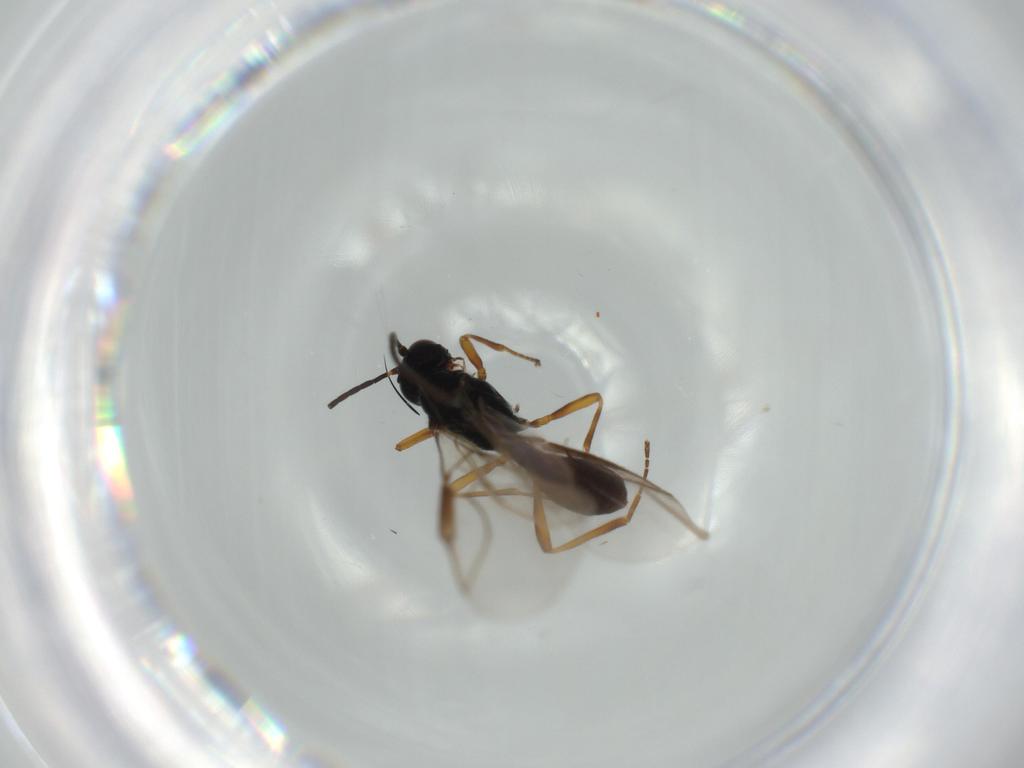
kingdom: Animalia
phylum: Arthropoda
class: Insecta
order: Hymenoptera
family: Braconidae
